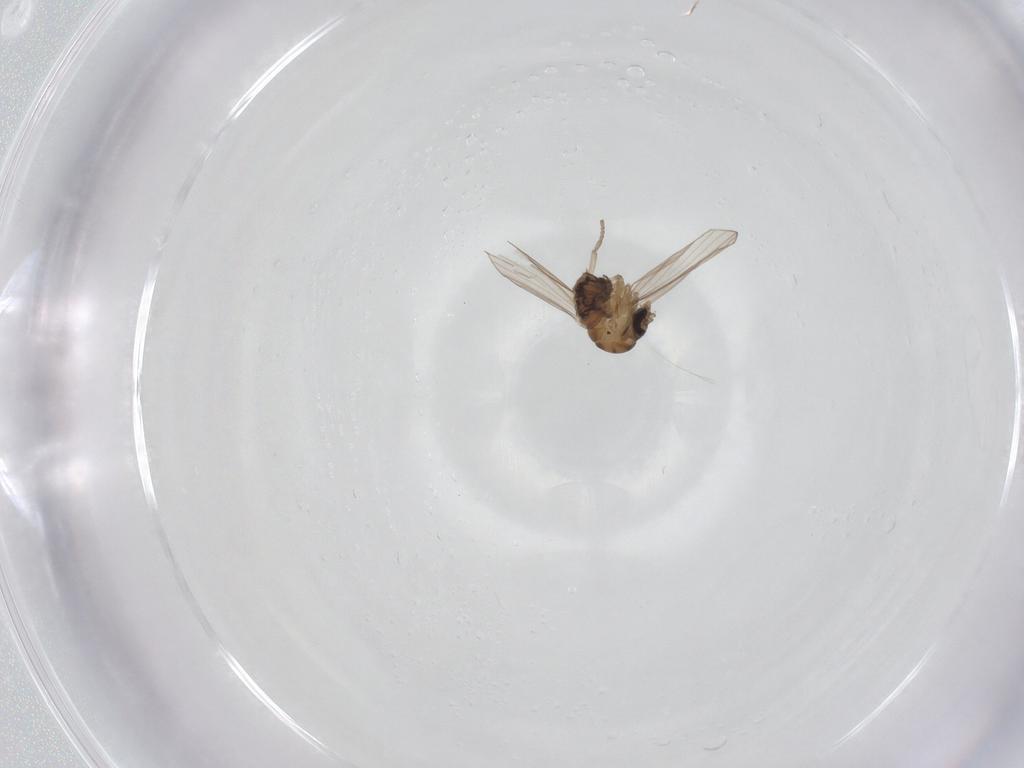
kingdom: Animalia
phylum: Arthropoda
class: Insecta
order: Diptera
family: Psychodidae
